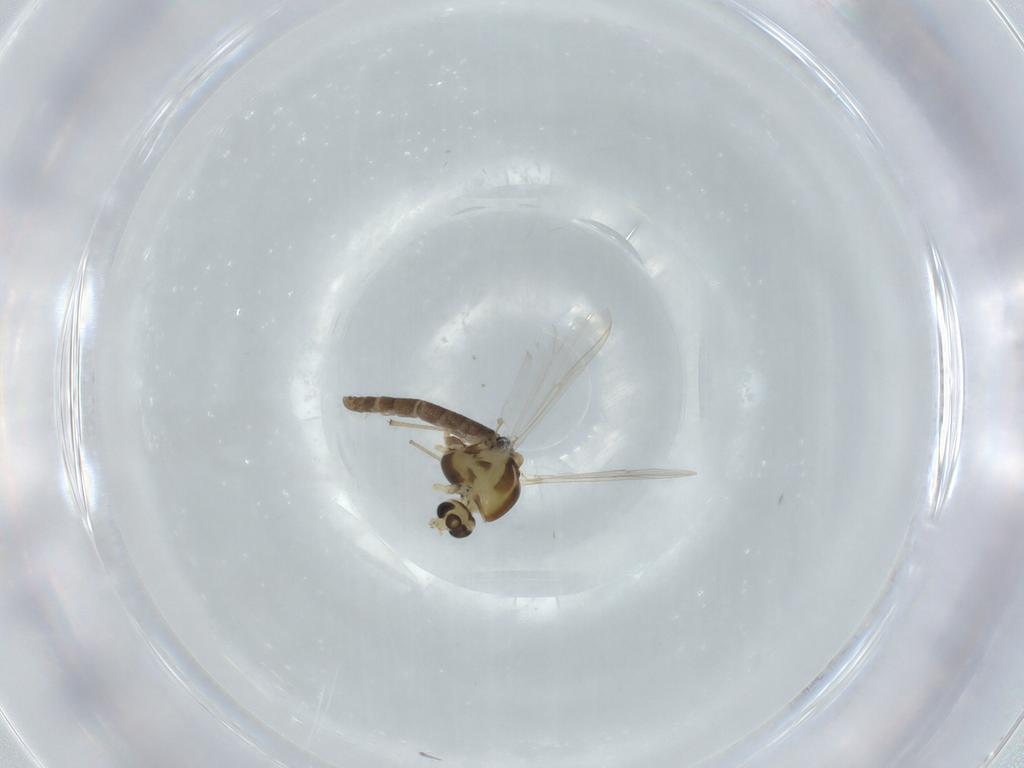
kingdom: Animalia
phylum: Arthropoda
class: Insecta
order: Diptera
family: Chironomidae
